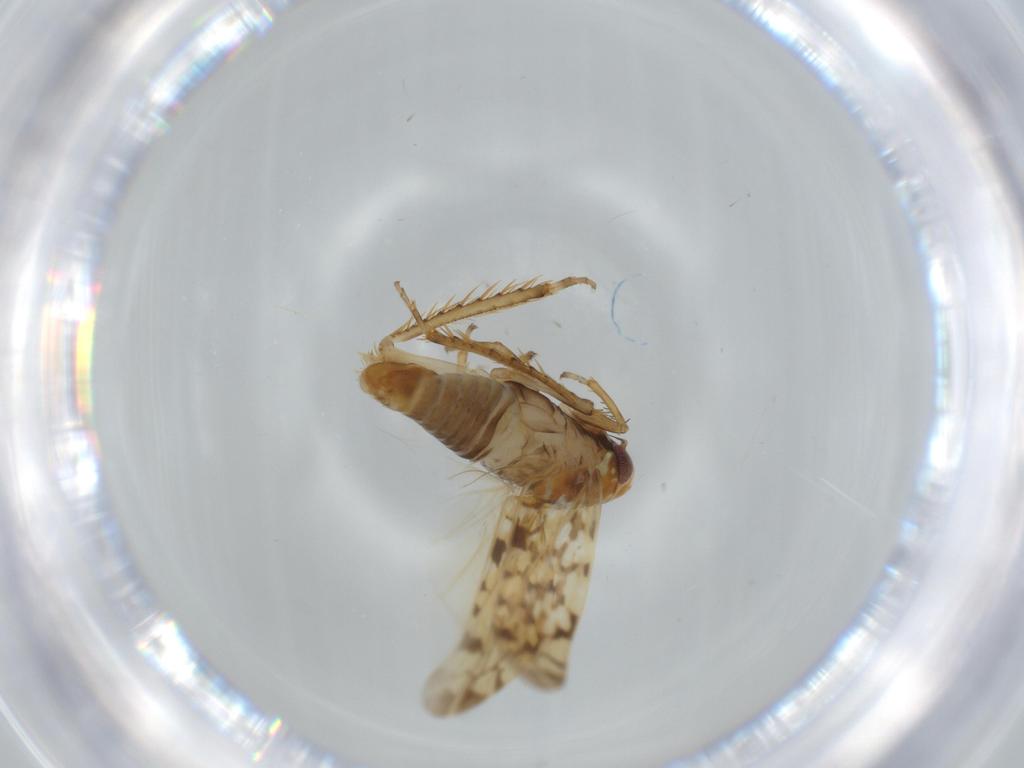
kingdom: Animalia
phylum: Arthropoda
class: Insecta
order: Hemiptera
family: Cicadellidae
